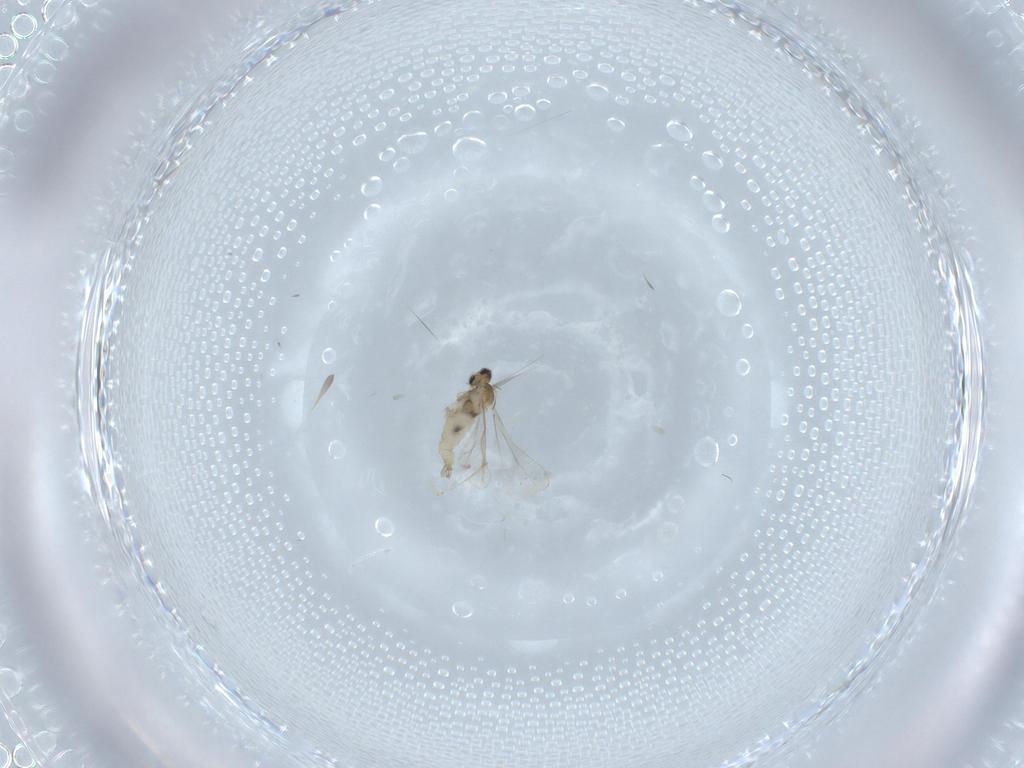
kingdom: Animalia
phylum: Arthropoda
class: Insecta
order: Diptera
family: Cecidomyiidae
